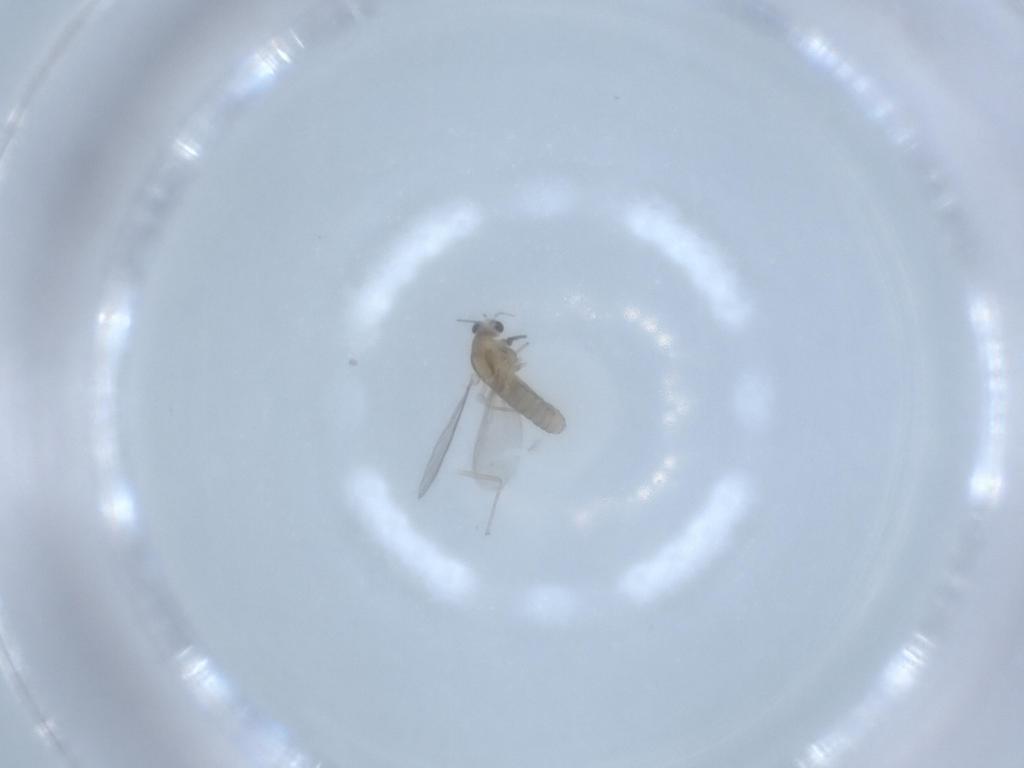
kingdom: Animalia
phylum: Arthropoda
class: Insecta
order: Diptera
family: Chironomidae
